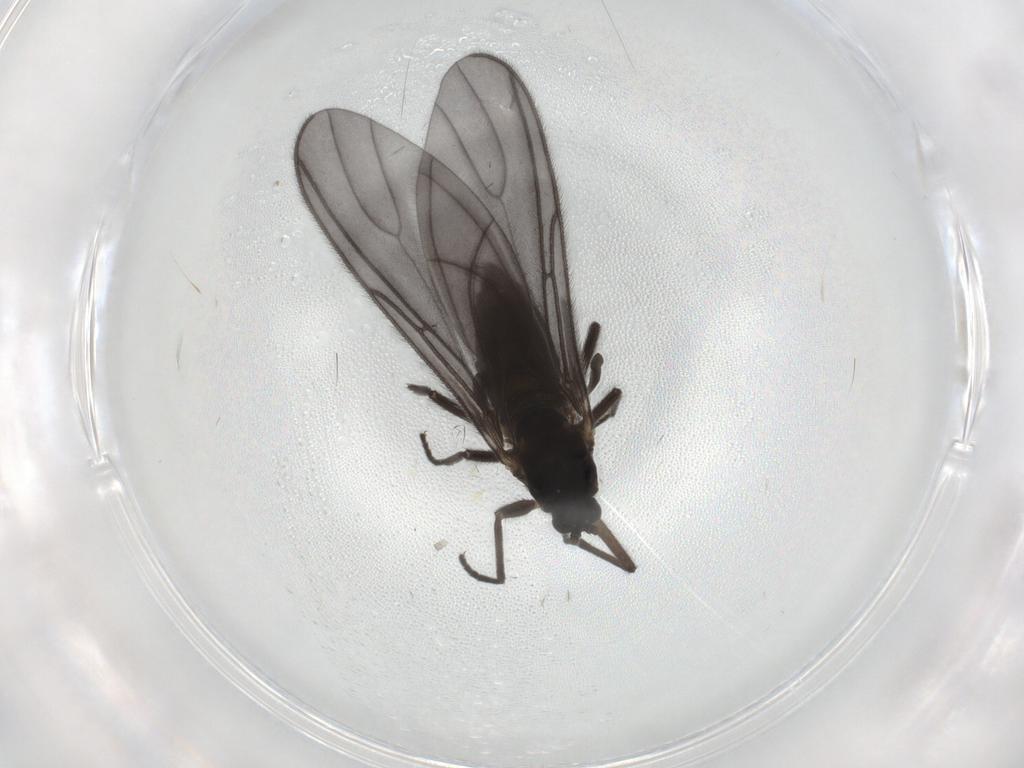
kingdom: Animalia
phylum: Arthropoda
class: Insecta
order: Diptera
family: Sciaridae
